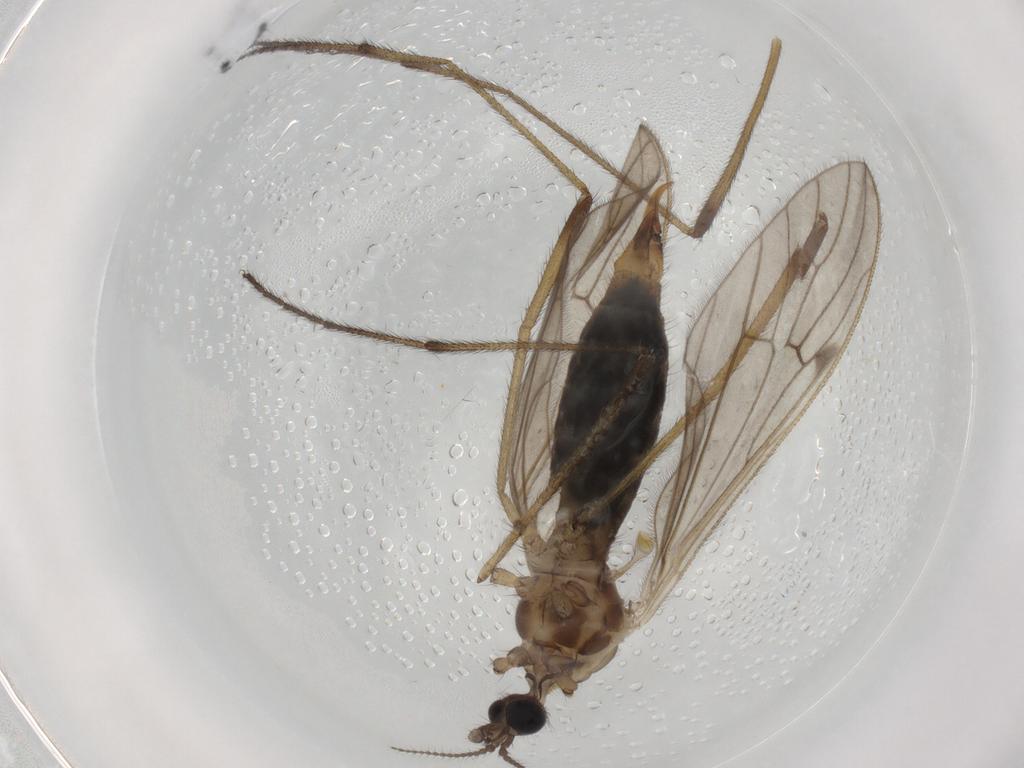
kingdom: Animalia
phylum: Arthropoda
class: Insecta
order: Diptera
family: Limoniidae
